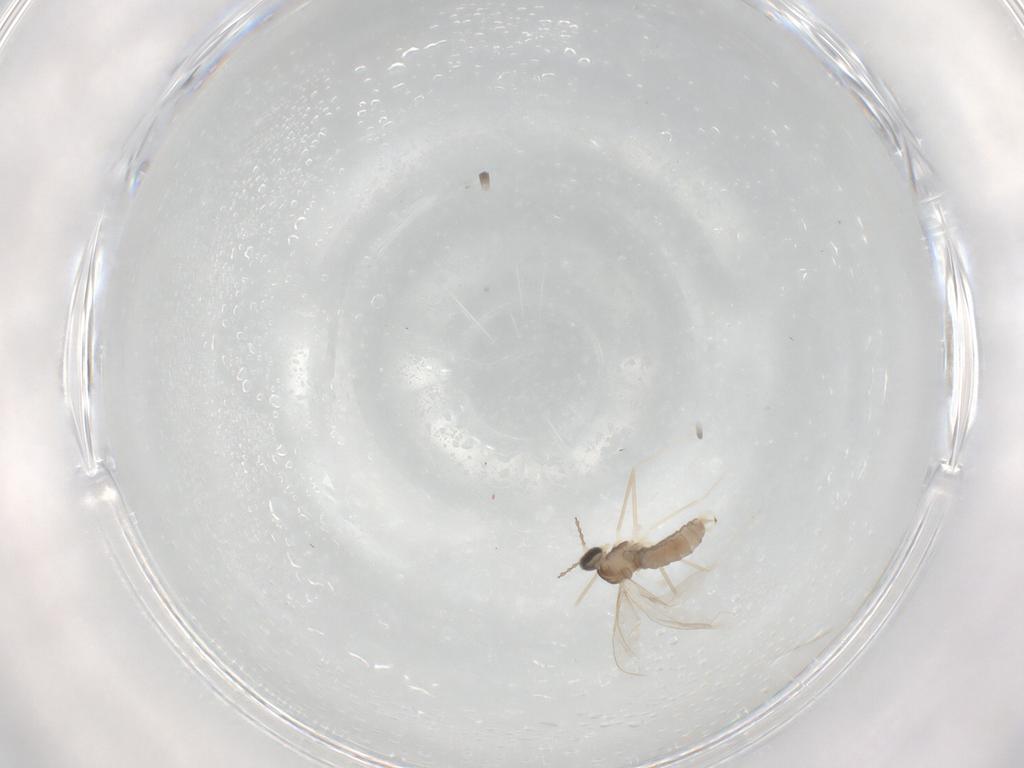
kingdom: Animalia
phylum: Arthropoda
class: Insecta
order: Diptera
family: Cecidomyiidae
